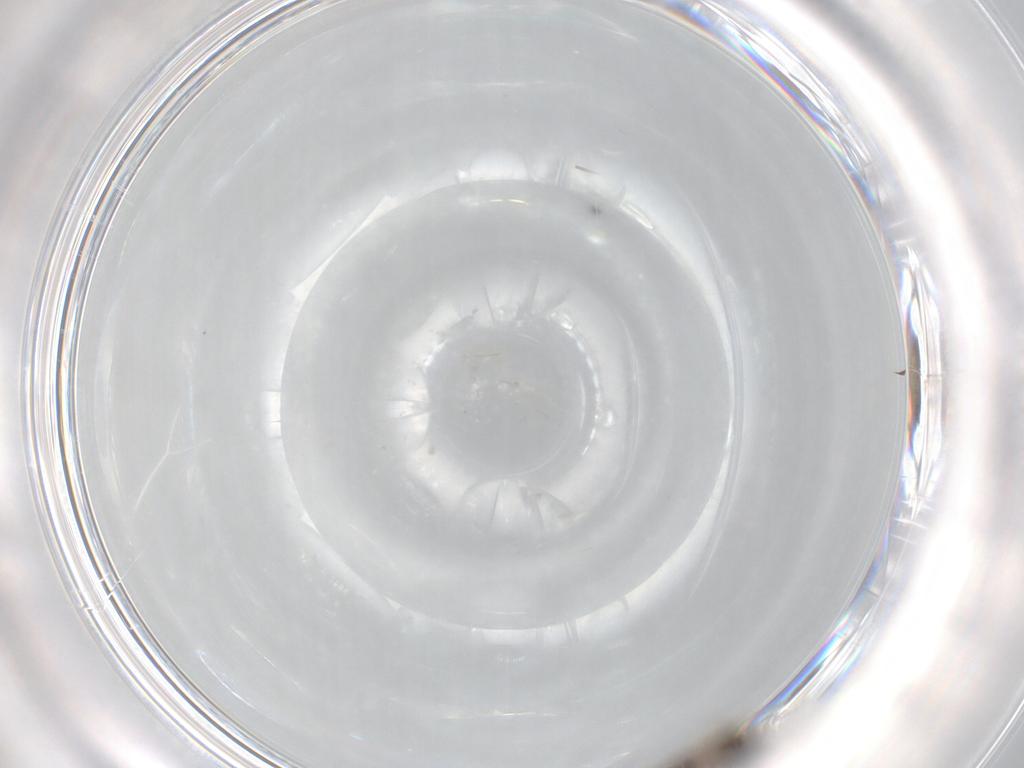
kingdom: Animalia
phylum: Arthropoda
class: Insecta
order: Hymenoptera
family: Diapriidae
